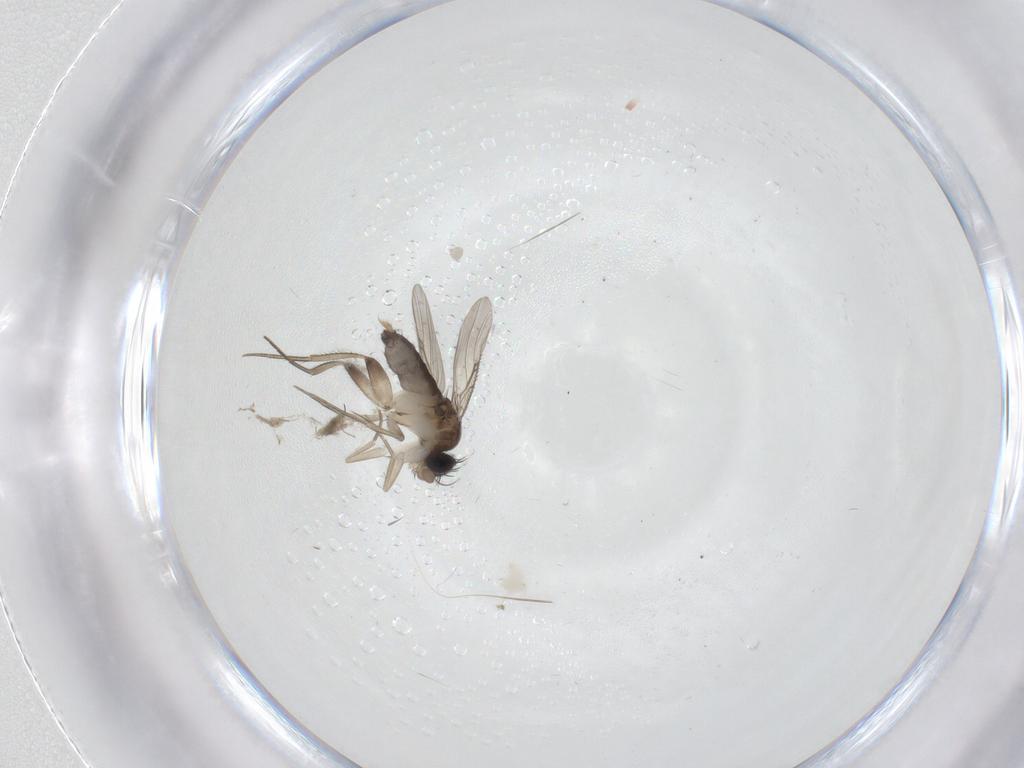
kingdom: Animalia
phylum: Arthropoda
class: Insecta
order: Diptera
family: Phoridae
